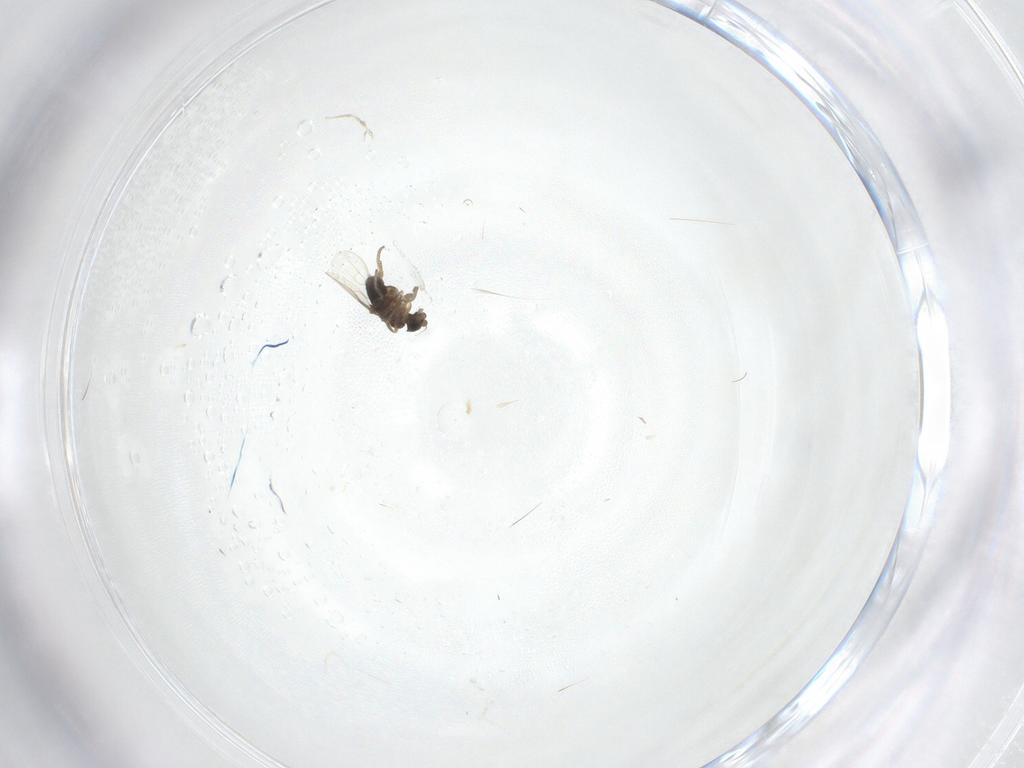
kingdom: Animalia
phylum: Arthropoda
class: Insecta
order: Diptera
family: Phoridae
